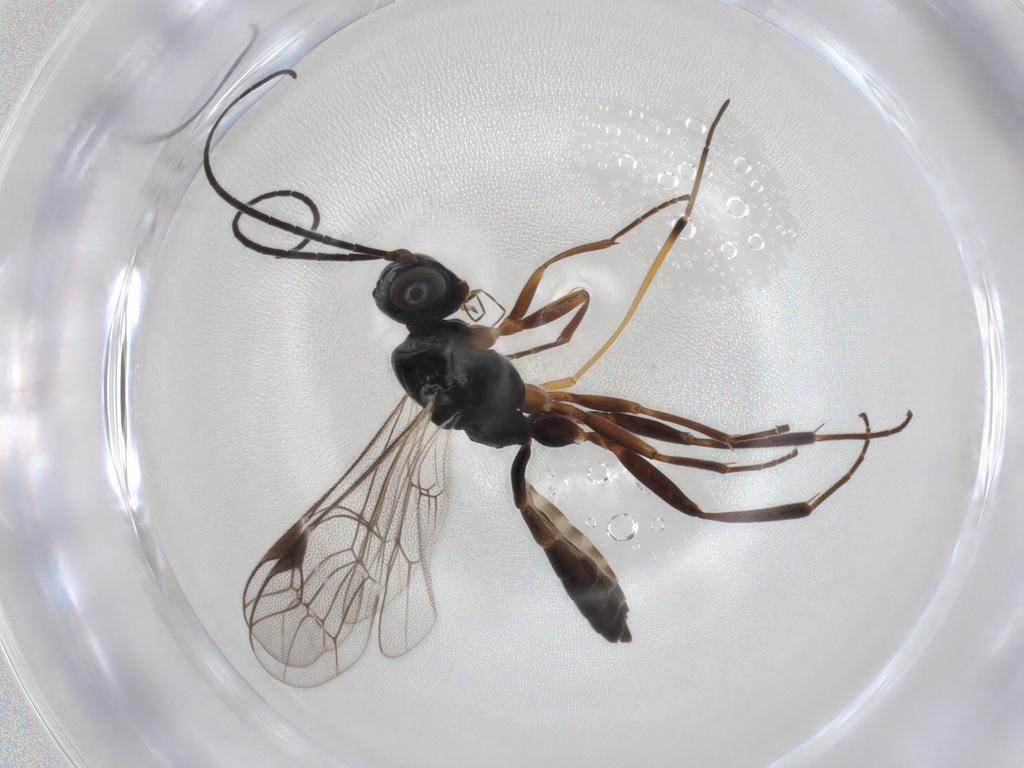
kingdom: Animalia
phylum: Arthropoda
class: Insecta
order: Hymenoptera
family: Ichneumonidae
